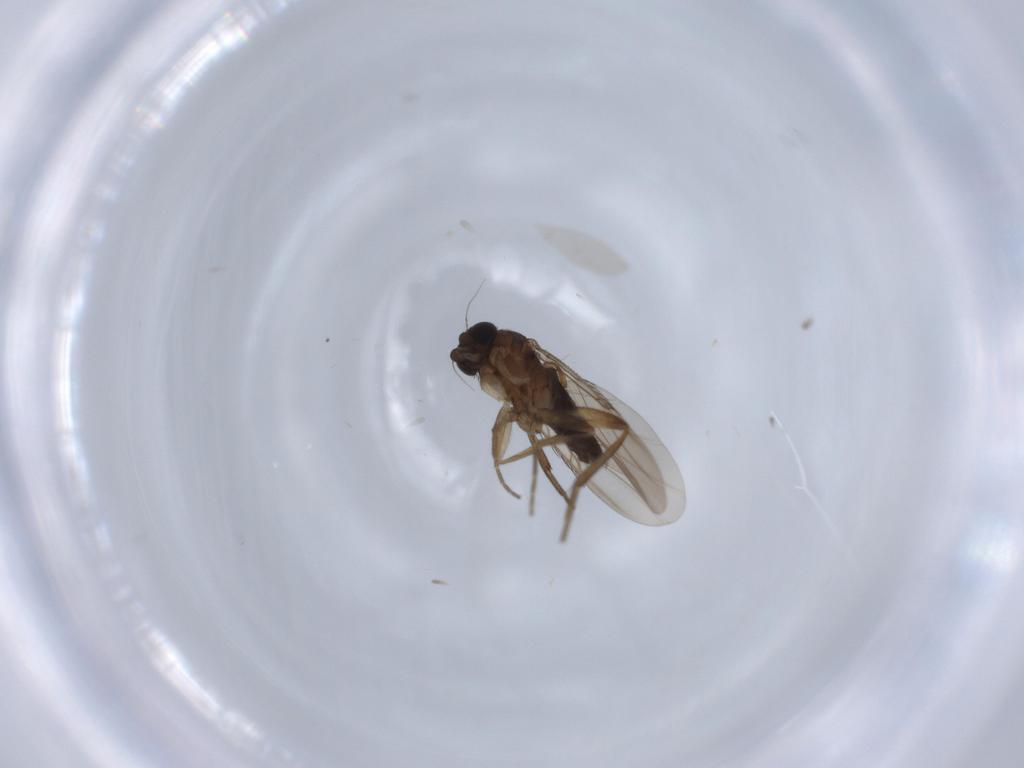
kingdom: Animalia
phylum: Arthropoda
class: Insecta
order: Diptera
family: Phoridae
